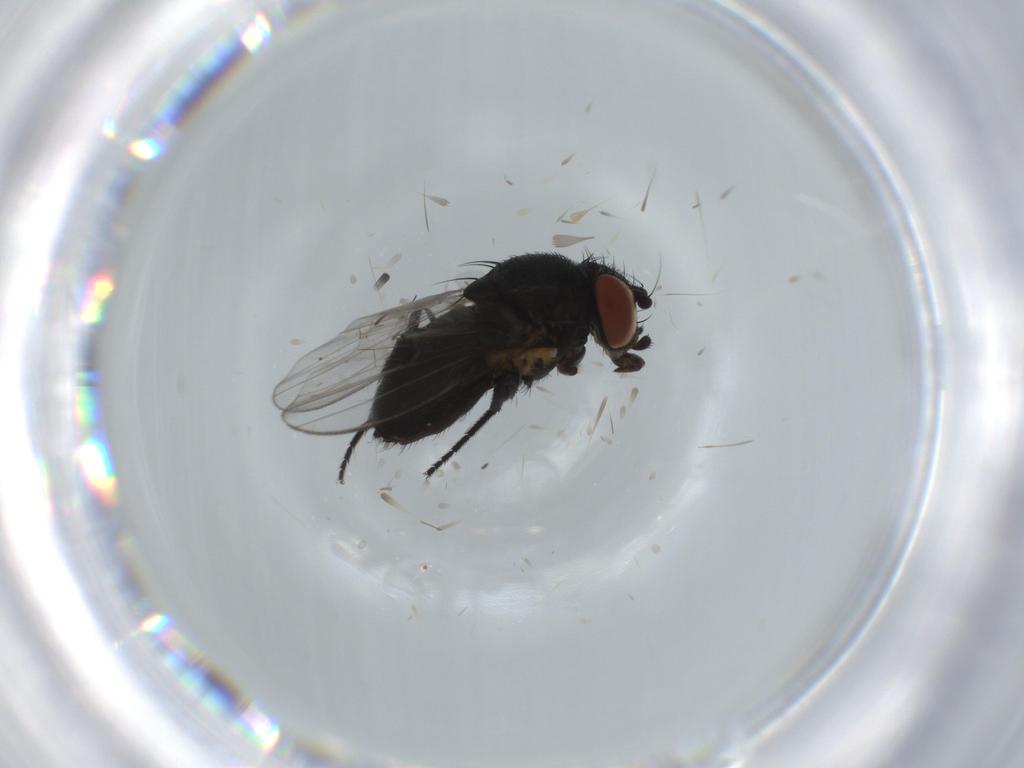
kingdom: Animalia
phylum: Arthropoda
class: Insecta
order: Diptera
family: Milichiidae
